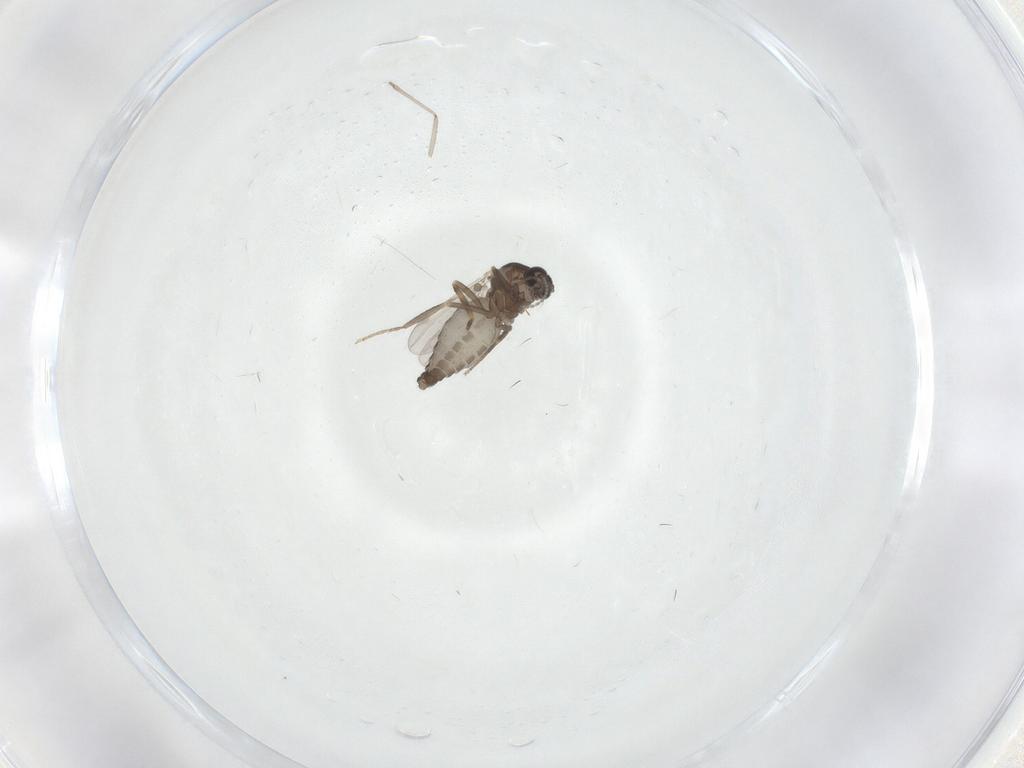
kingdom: Animalia
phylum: Arthropoda
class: Insecta
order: Diptera
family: Ceratopogonidae
